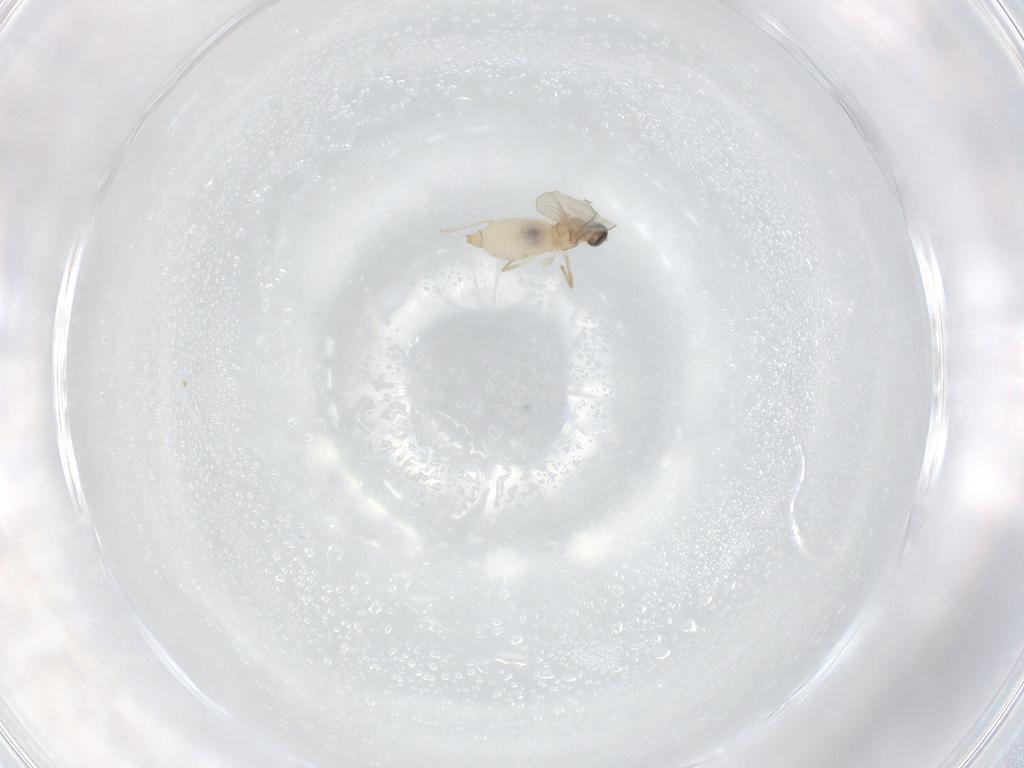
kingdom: Animalia
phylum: Arthropoda
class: Insecta
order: Diptera
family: Cecidomyiidae
